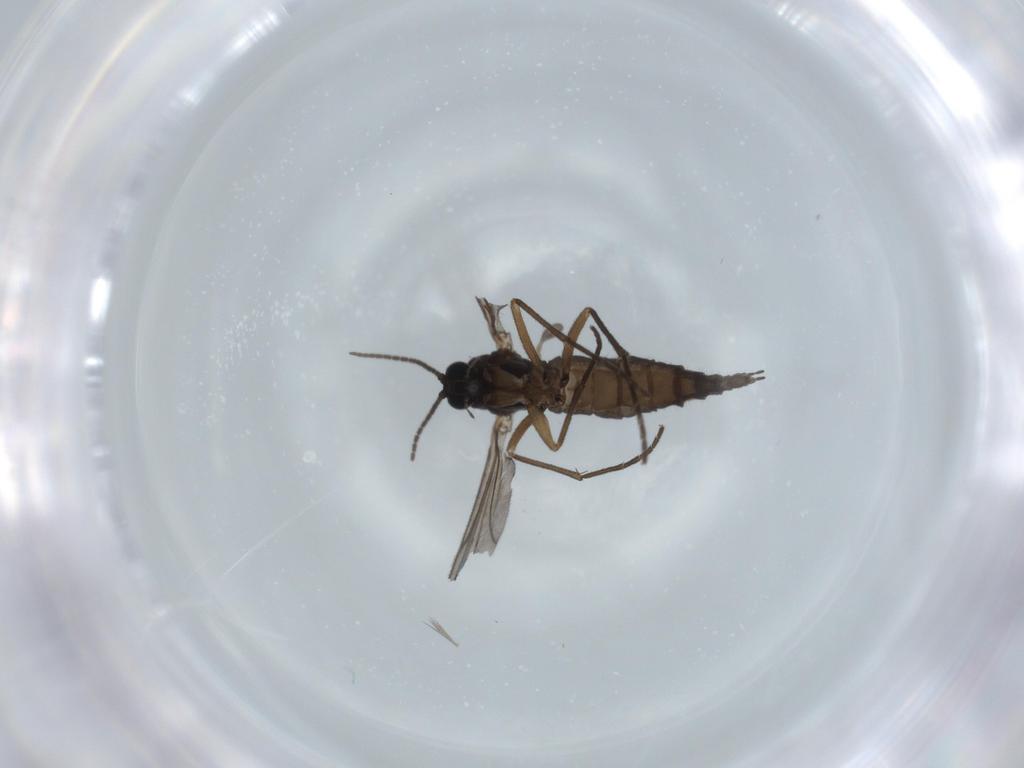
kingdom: Animalia
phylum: Arthropoda
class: Insecta
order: Diptera
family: Sciaridae
